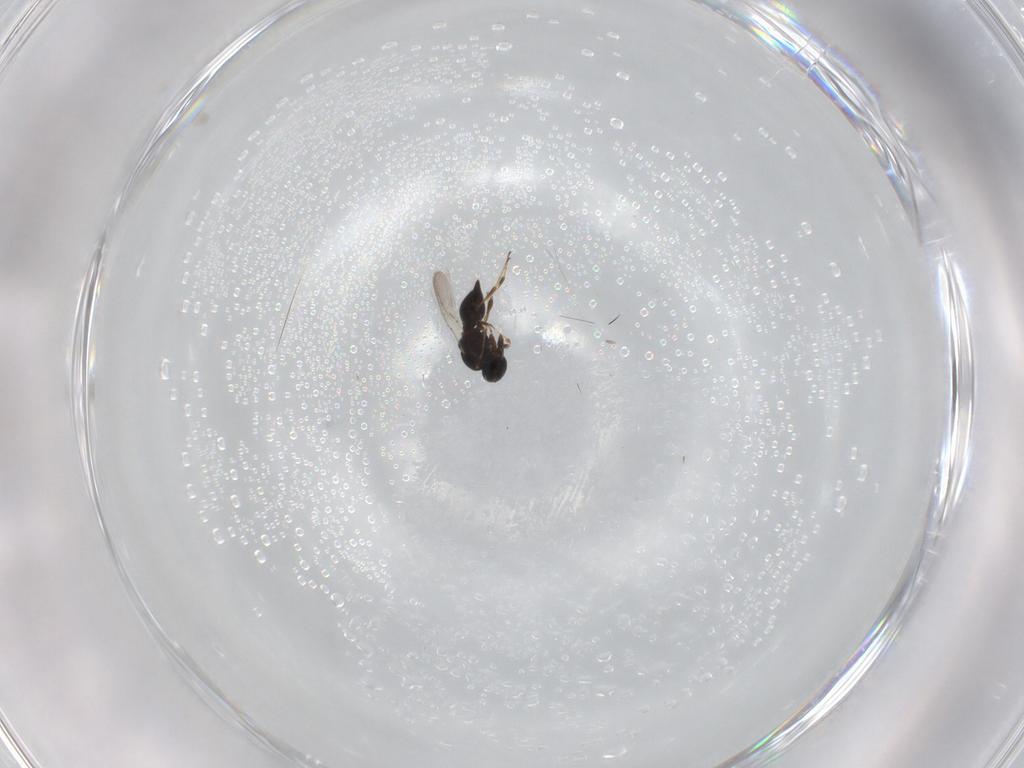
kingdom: Animalia
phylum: Arthropoda
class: Insecta
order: Hymenoptera
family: Platygastridae
